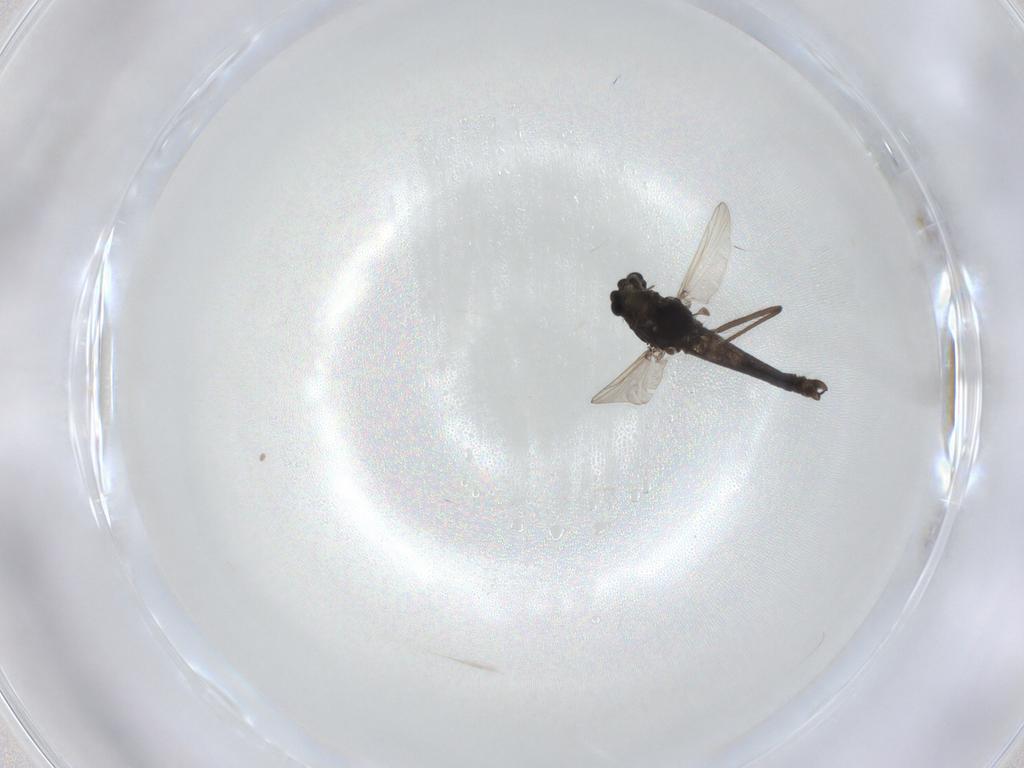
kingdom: Animalia
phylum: Arthropoda
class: Insecta
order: Diptera
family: Chironomidae
